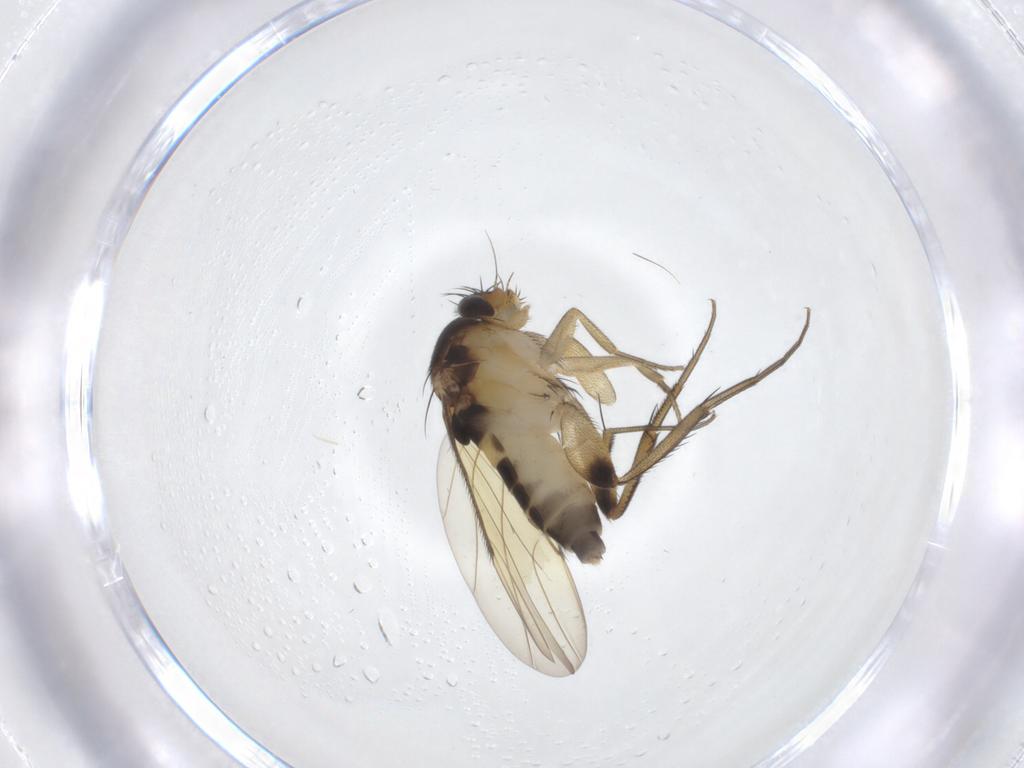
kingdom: Animalia
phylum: Arthropoda
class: Insecta
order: Diptera
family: Phoridae
